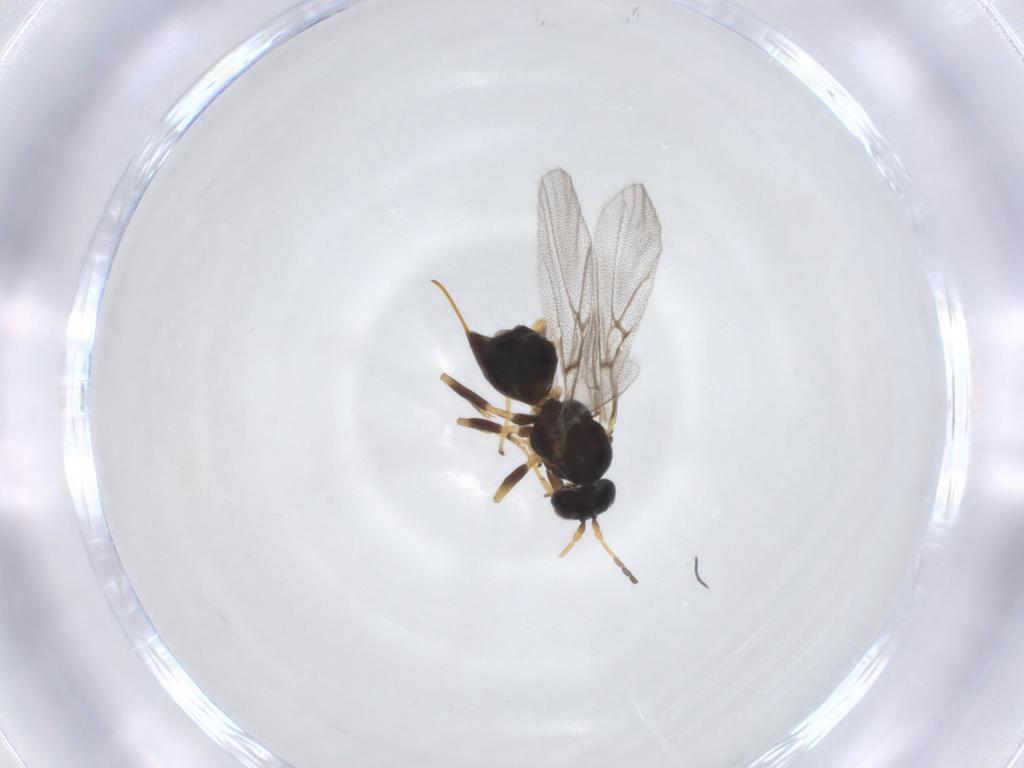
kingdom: Animalia
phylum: Arthropoda
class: Insecta
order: Hymenoptera
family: Cynipidae
